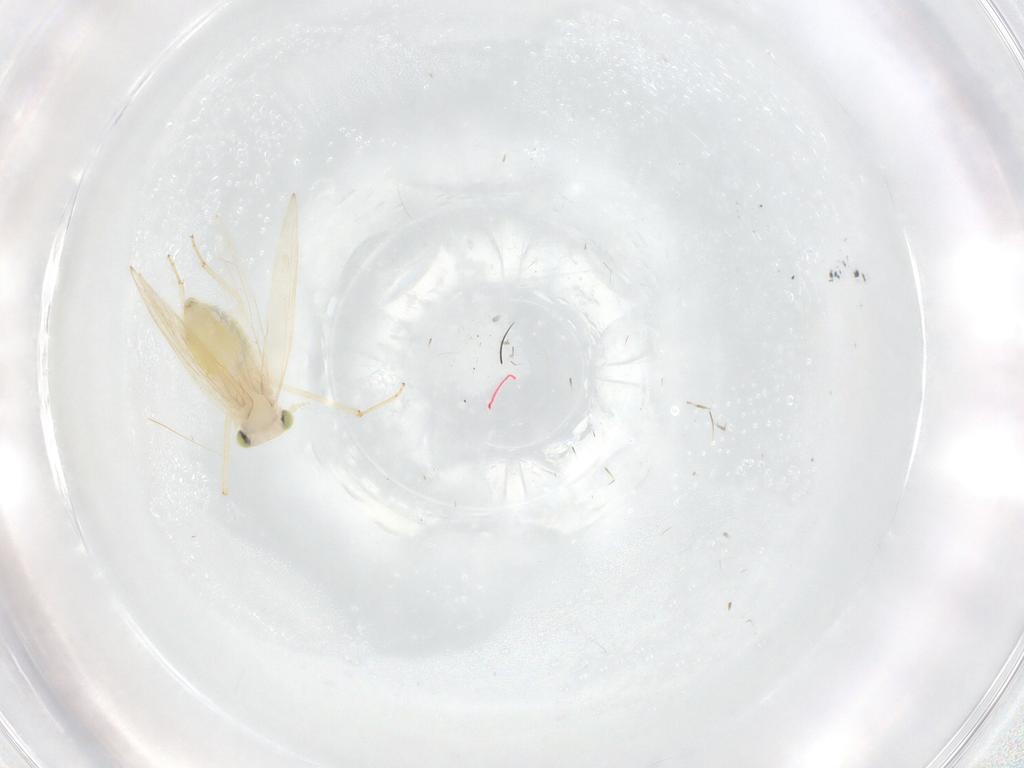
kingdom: Animalia
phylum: Arthropoda
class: Insecta
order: Psocodea
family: Lepidopsocidae
